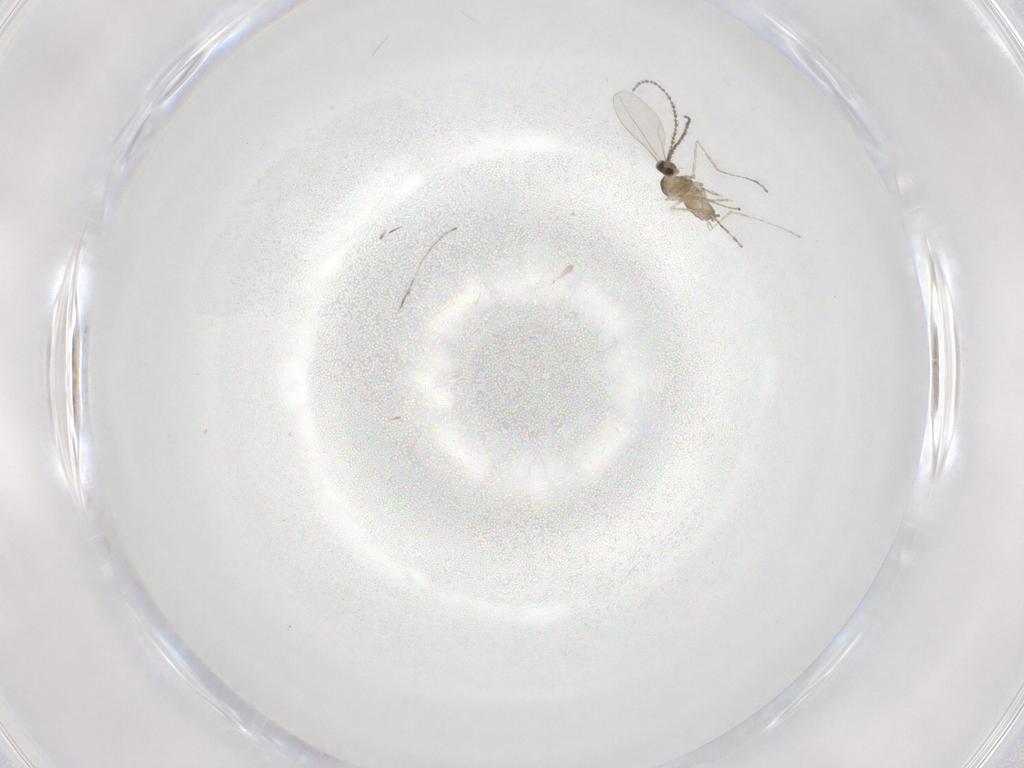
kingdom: Animalia
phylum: Arthropoda
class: Insecta
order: Diptera
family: Cecidomyiidae
